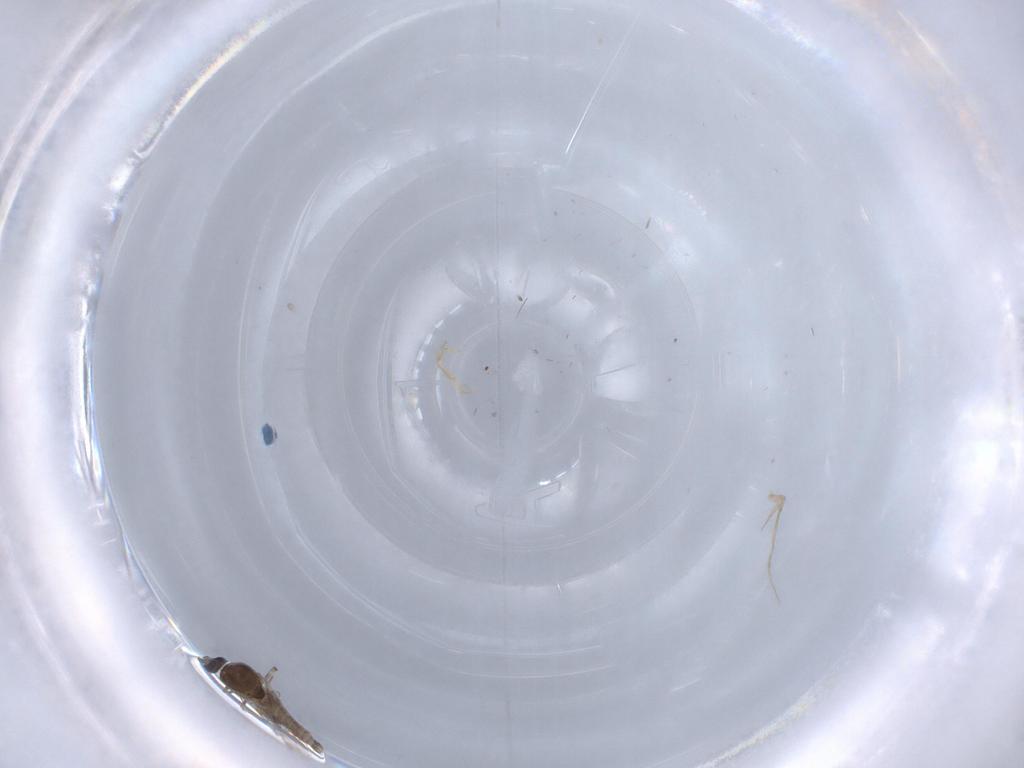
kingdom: Animalia
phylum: Arthropoda
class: Insecta
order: Diptera
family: Ceratopogonidae
